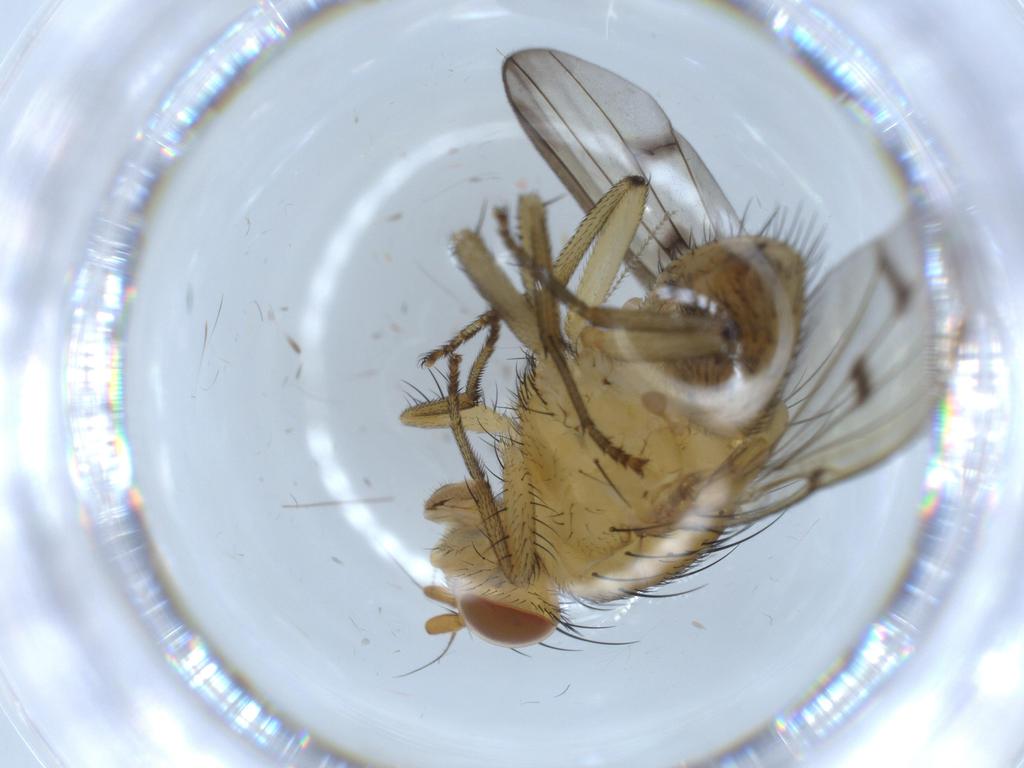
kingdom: Animalia
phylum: Arthropoda
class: Insecta
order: Diptera
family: Chironomidae
